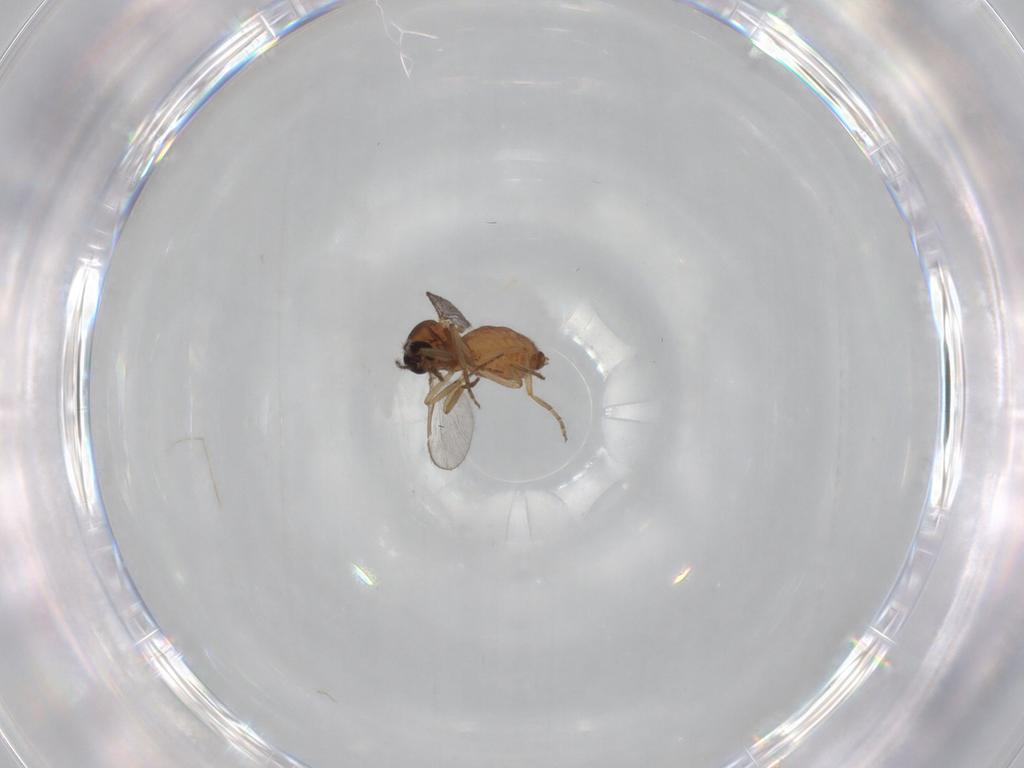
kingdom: Animalia
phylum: Arthropoda
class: Insecta
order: Diptera
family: Ceratopogonidae
